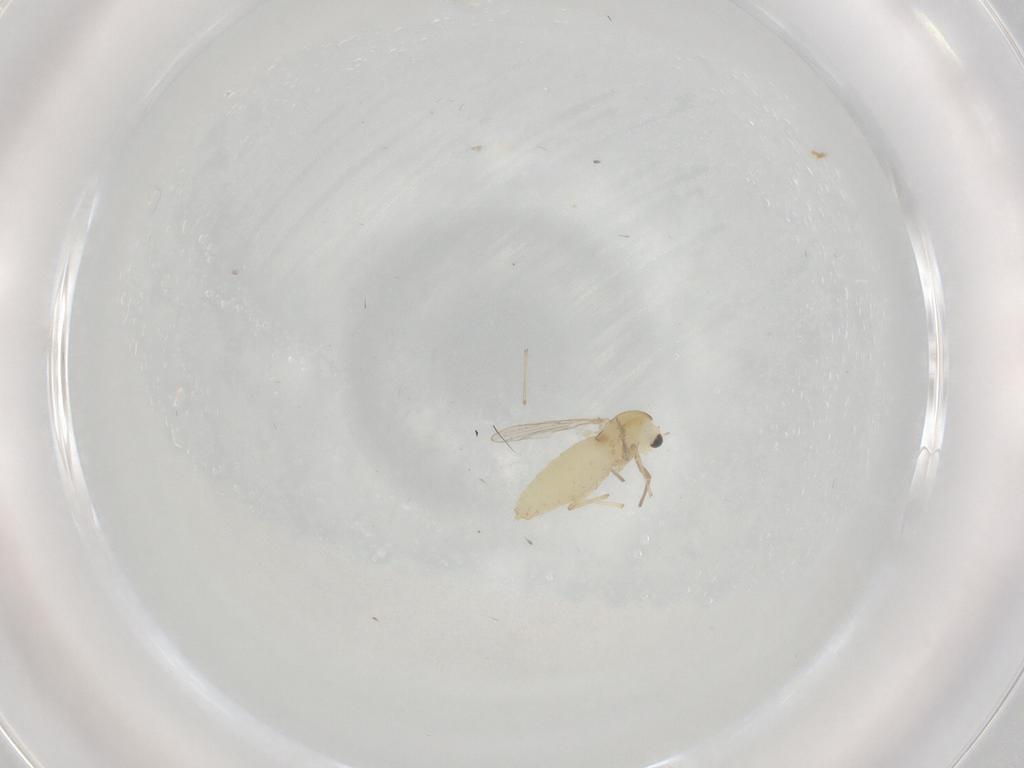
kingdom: Animalia
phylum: Arthropoda
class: Insecta
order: Diptera
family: Chironomidae
